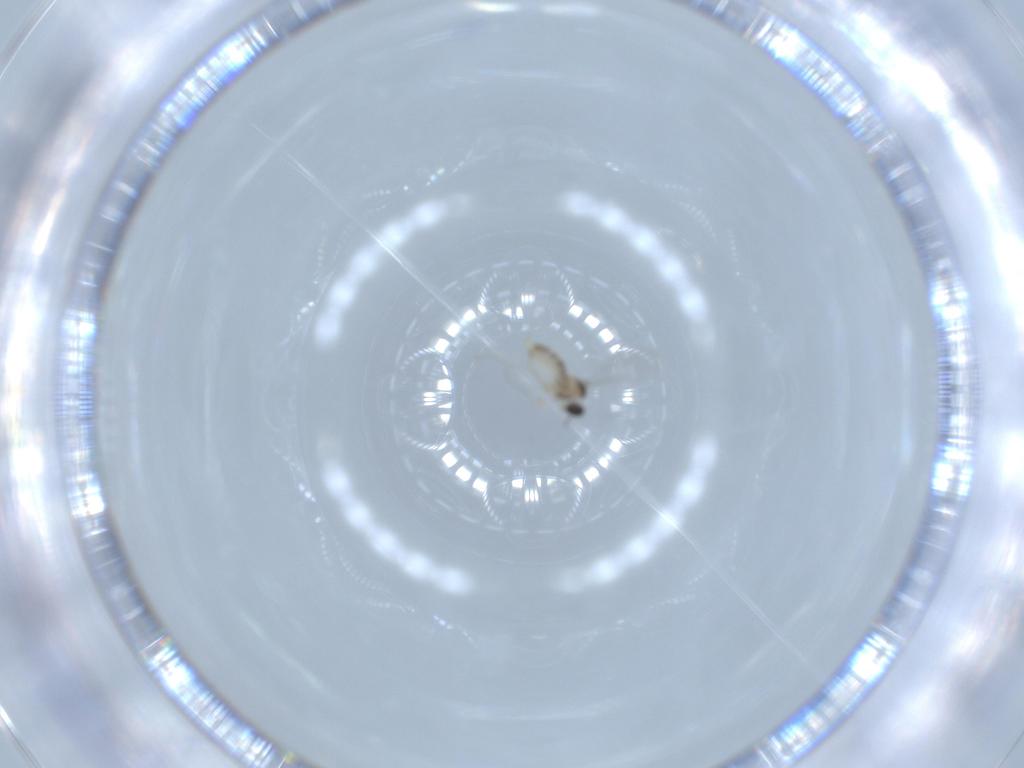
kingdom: Animalia
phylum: Arthropoda
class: Insecta
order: Diptera
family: Cecidomyiidae
